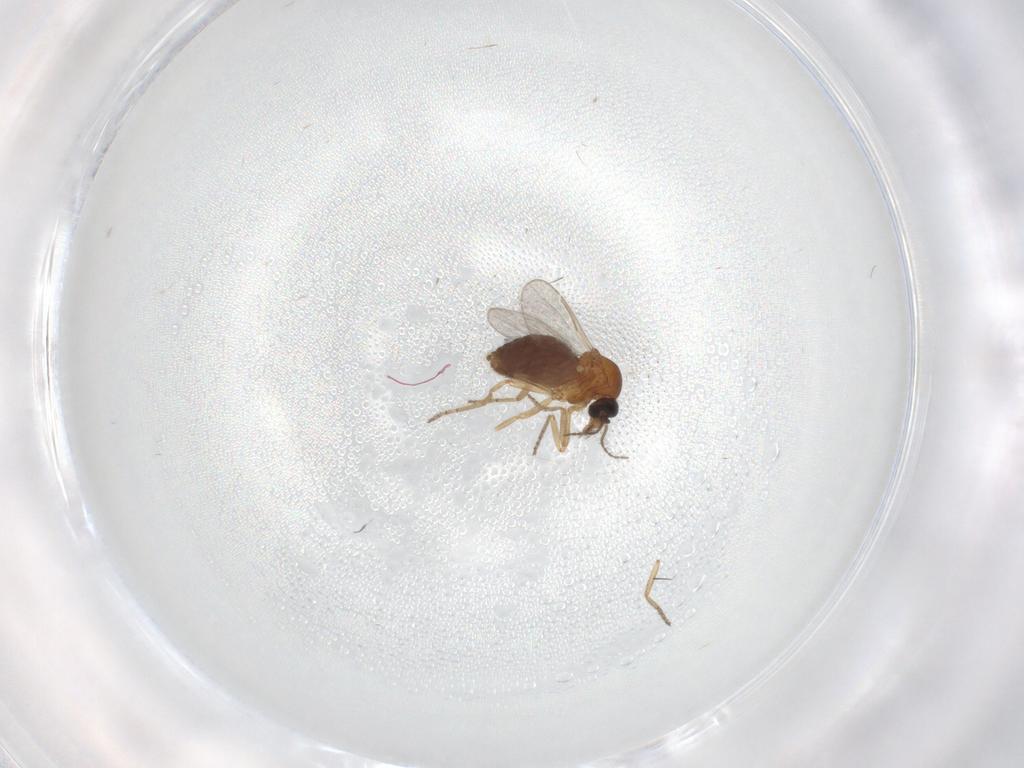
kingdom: Animalia
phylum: Arthropoda
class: Insecta
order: Diptera
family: Ceratopogonidae
